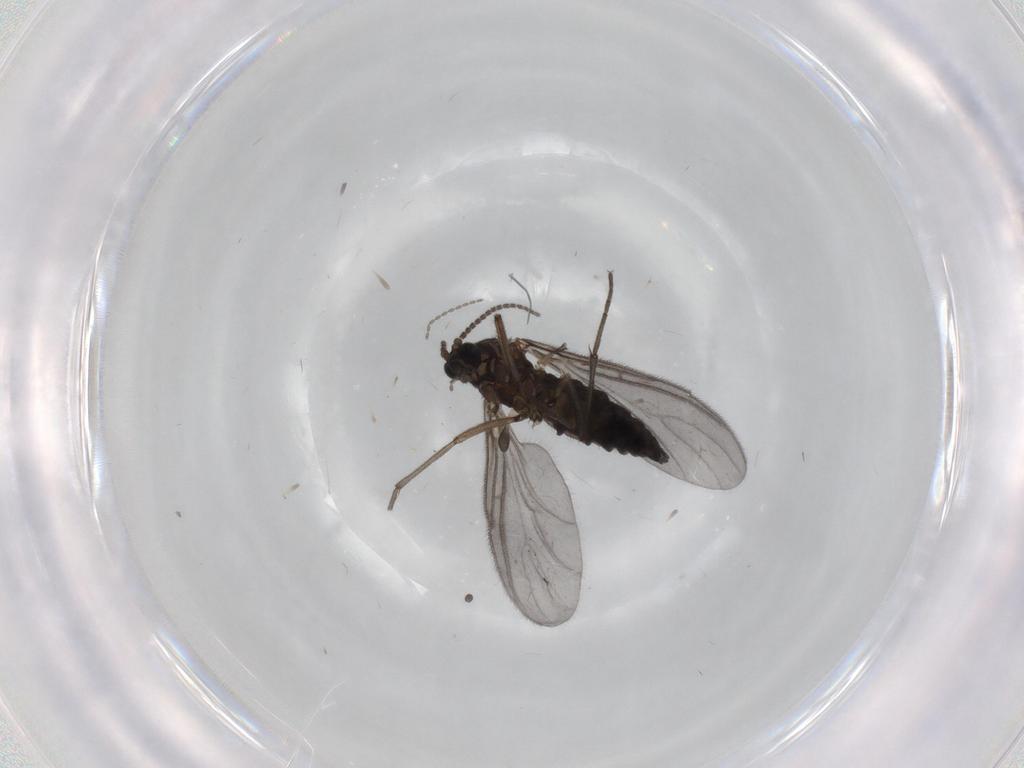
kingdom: Animalia
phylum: Arthropoda
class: Insecta
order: Diptera
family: Sciaridae
